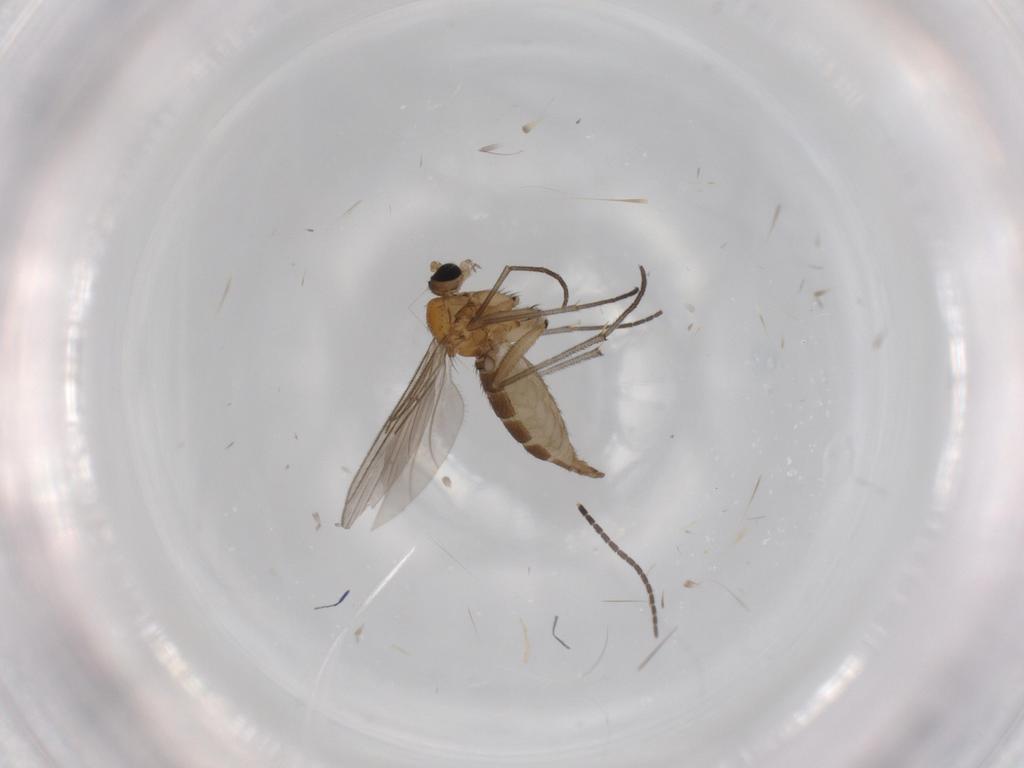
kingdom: Animalia
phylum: Arthropoda
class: Insecta
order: Diptera
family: Sciaridae
